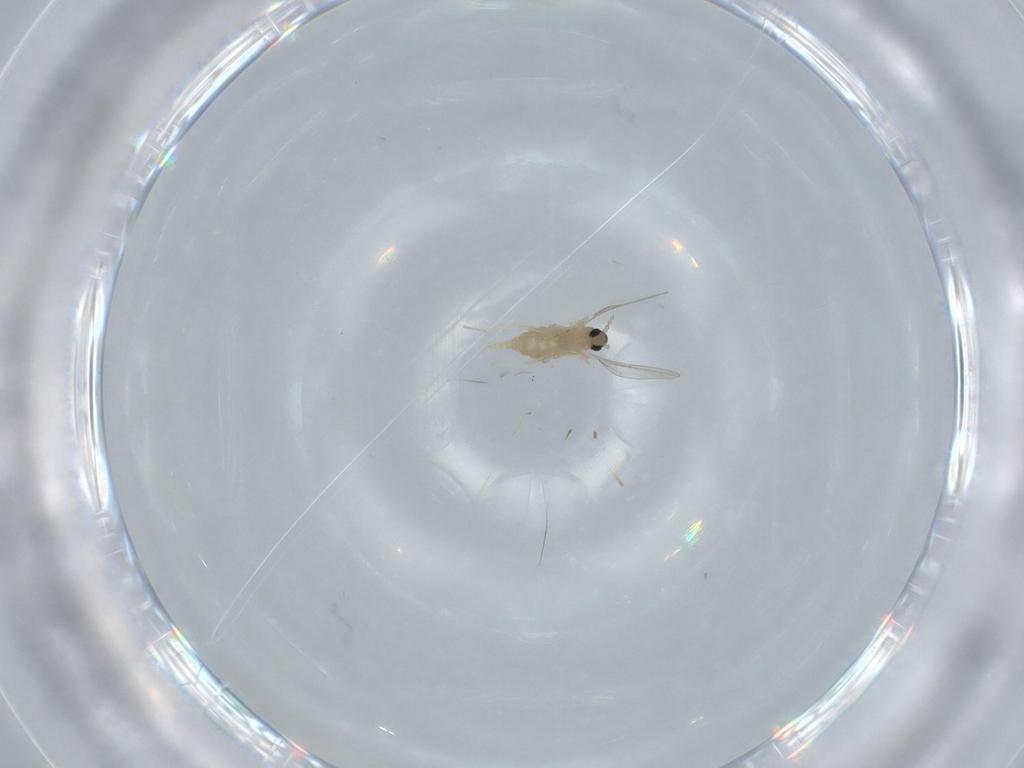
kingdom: Animalia
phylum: Arthropoda
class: Insecta
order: Diptera
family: Cecidomyiidae
